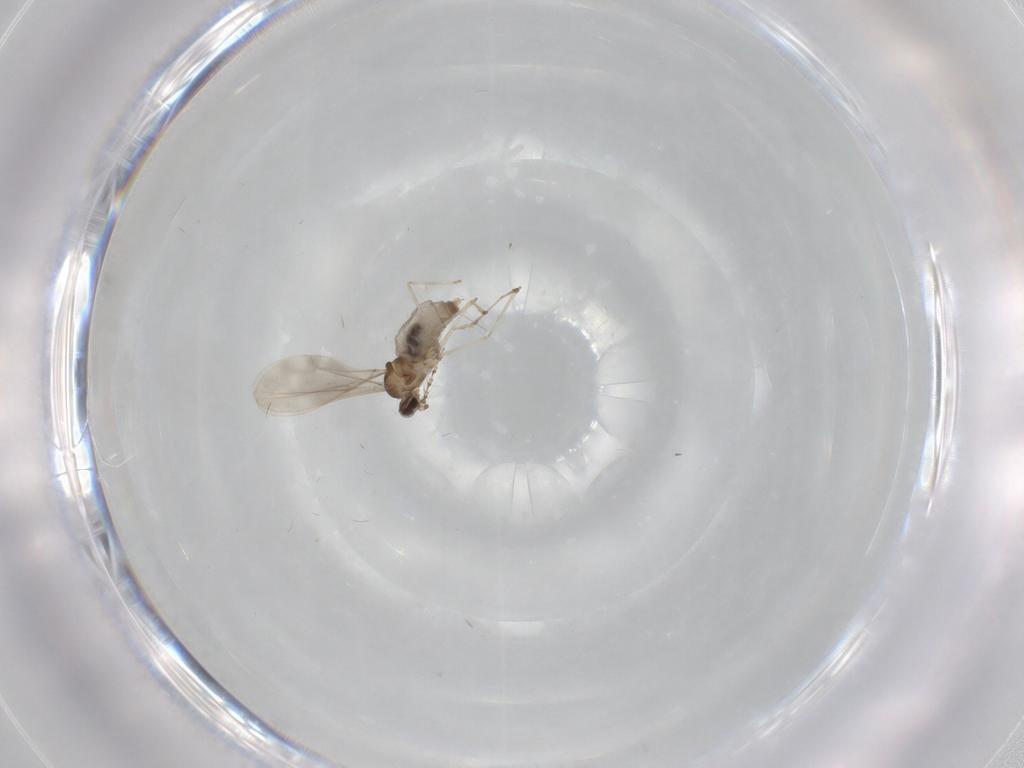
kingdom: Animalia
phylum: Arthropoda
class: Insecta
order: Diptera
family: Cecidomyiidae
